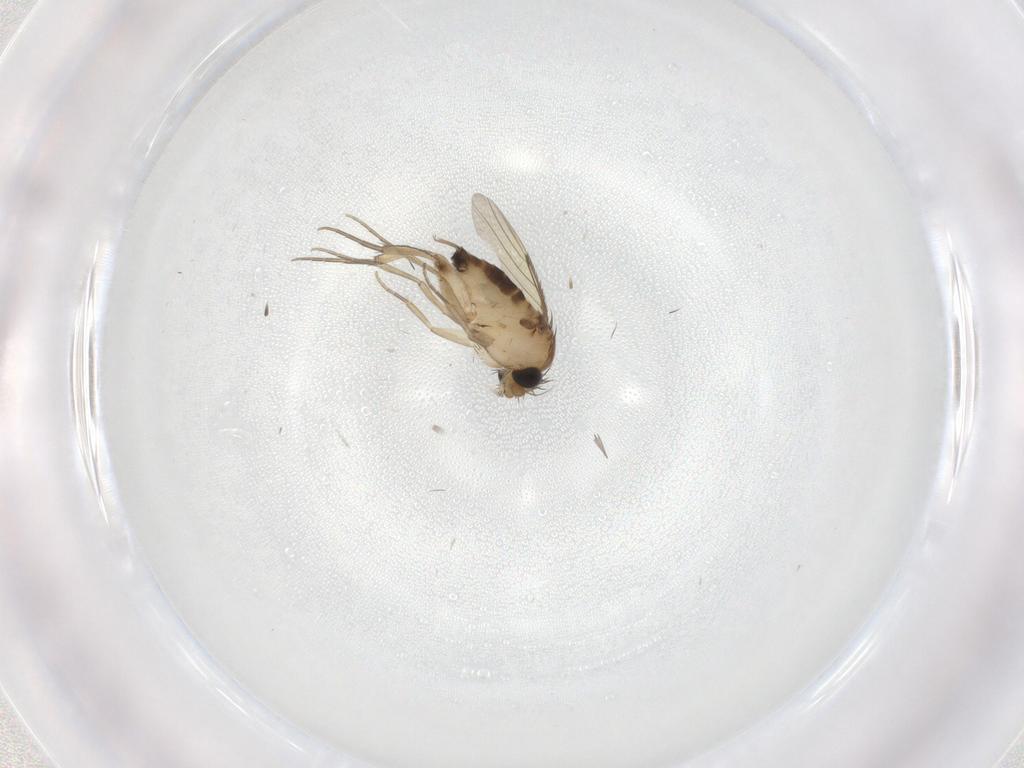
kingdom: Animalia
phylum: Arthropoda
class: Insecta
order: Diptera
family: Phoridae
